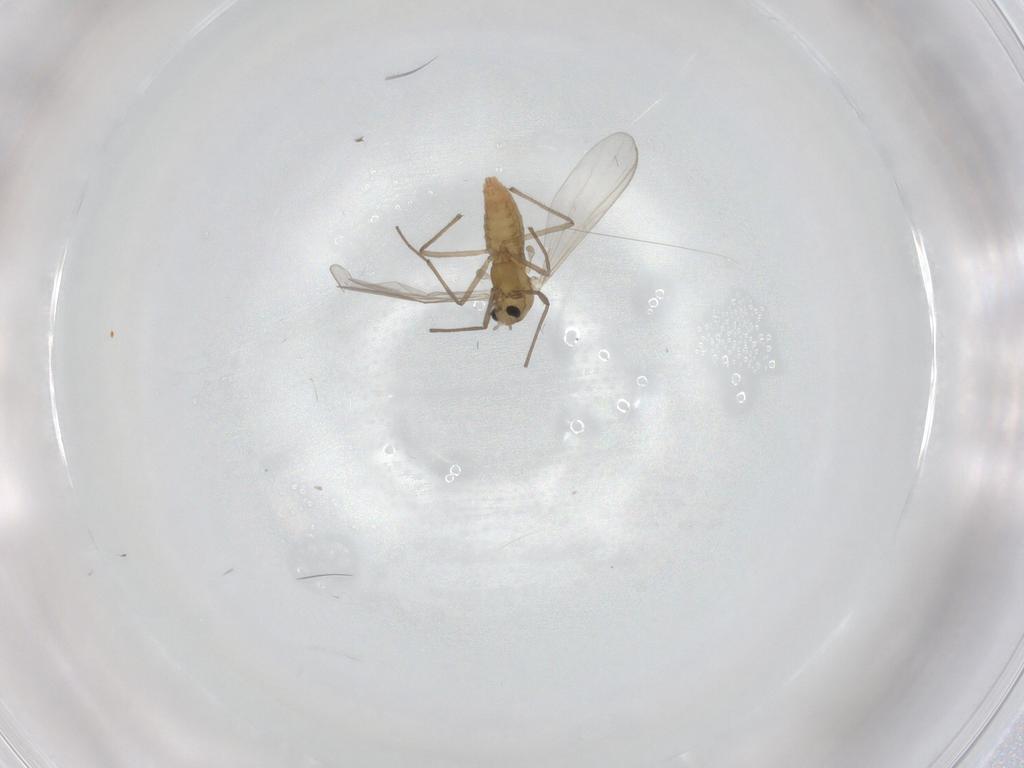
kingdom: Animalia
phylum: Arthropoda
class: Insecta
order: Diptera
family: Chironomidae
